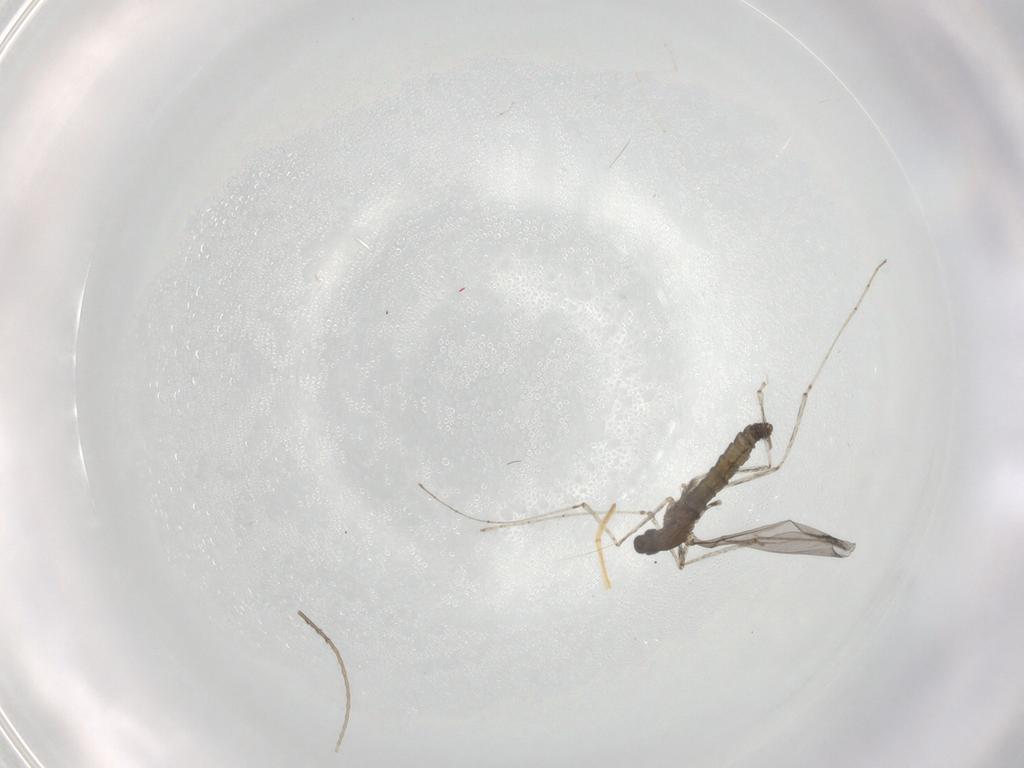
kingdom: Animalia
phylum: Arthropoda
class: Insecta
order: Diptera
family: Cecidomyiidae
